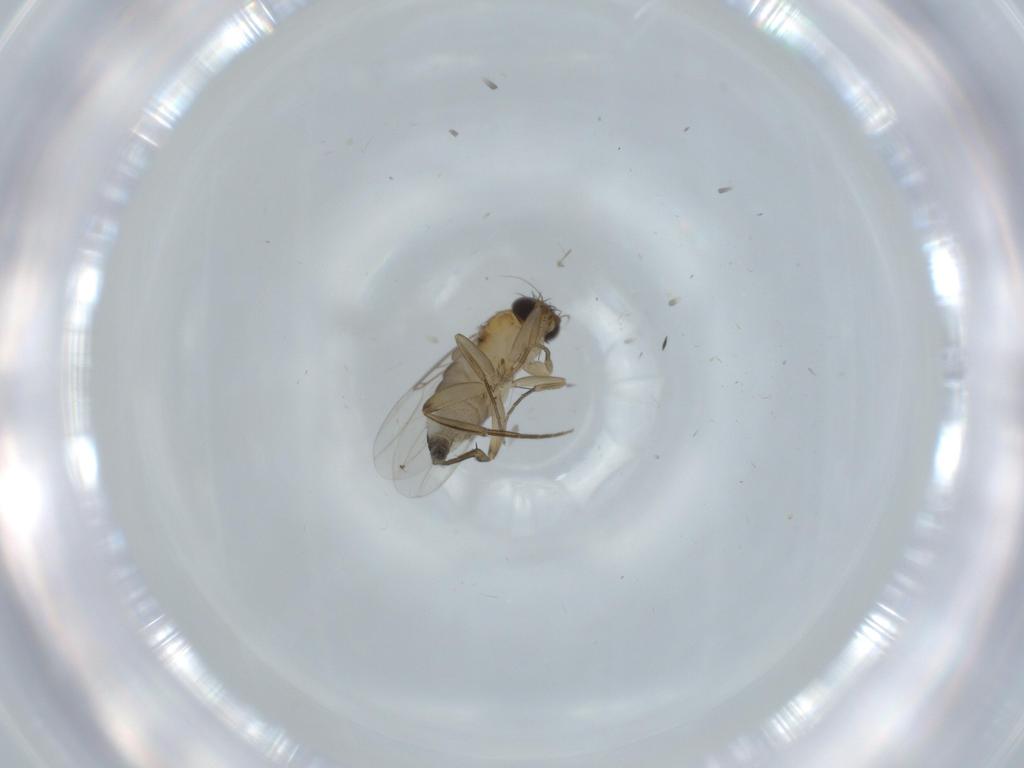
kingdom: Animalia
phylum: Arthropoda
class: Insecta
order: Diptera
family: Phoridae
